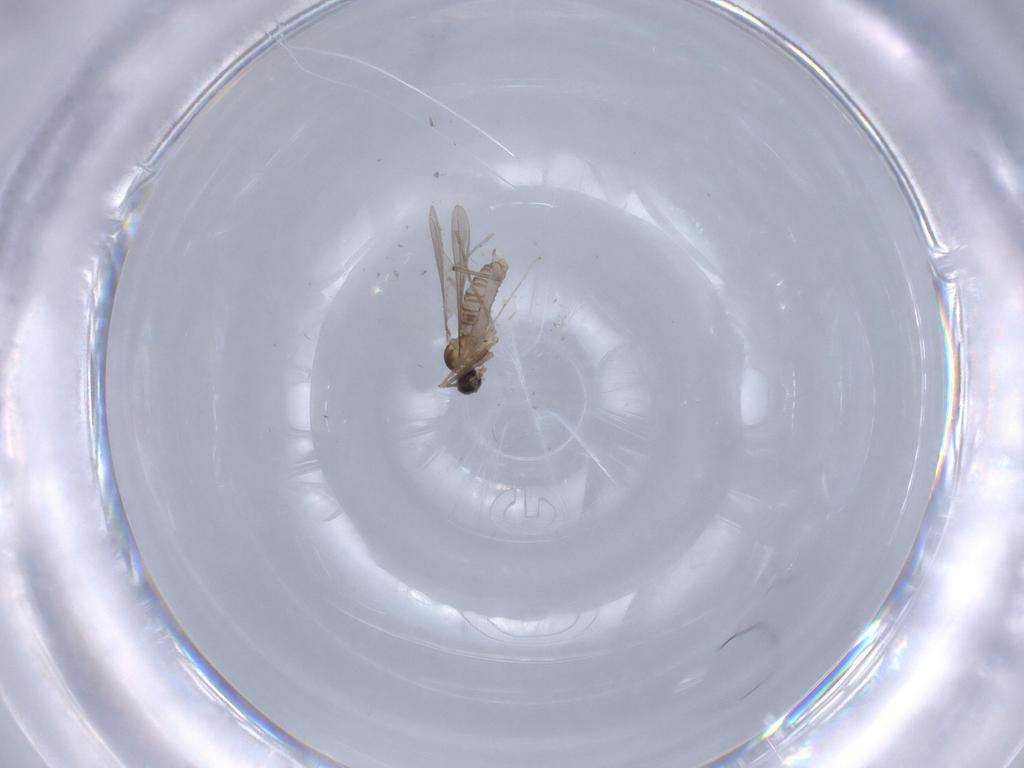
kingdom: Animalia
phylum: Arthropoda
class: Insecta
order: Diptera
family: Cecidomyiidae
